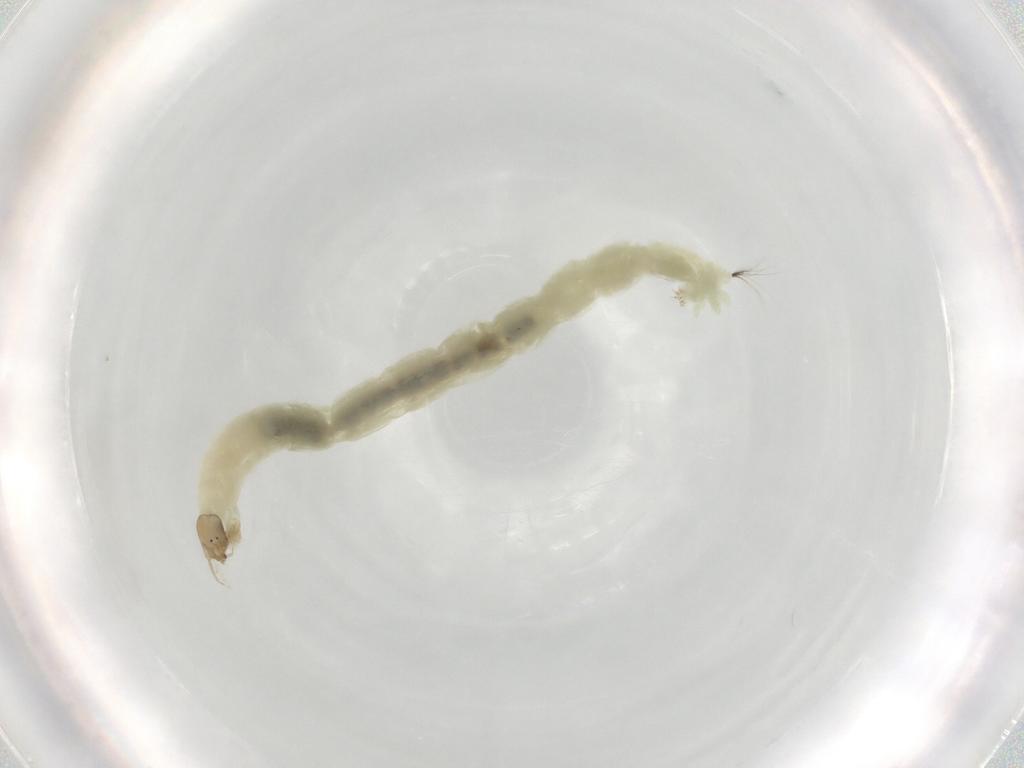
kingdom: Animalia
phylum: Arthropoda
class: Insecta
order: Diptera
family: Chironomidae
